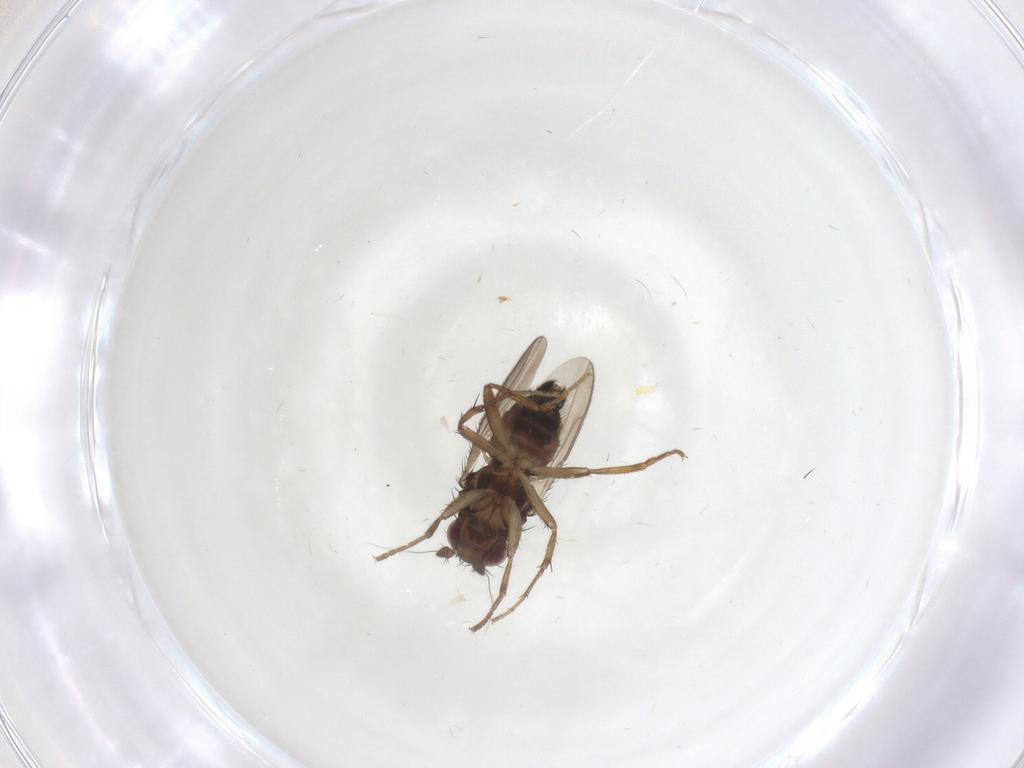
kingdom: Animalia
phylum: Arthropoda
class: Insecta
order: Diptera
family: Sphaeroceridae
